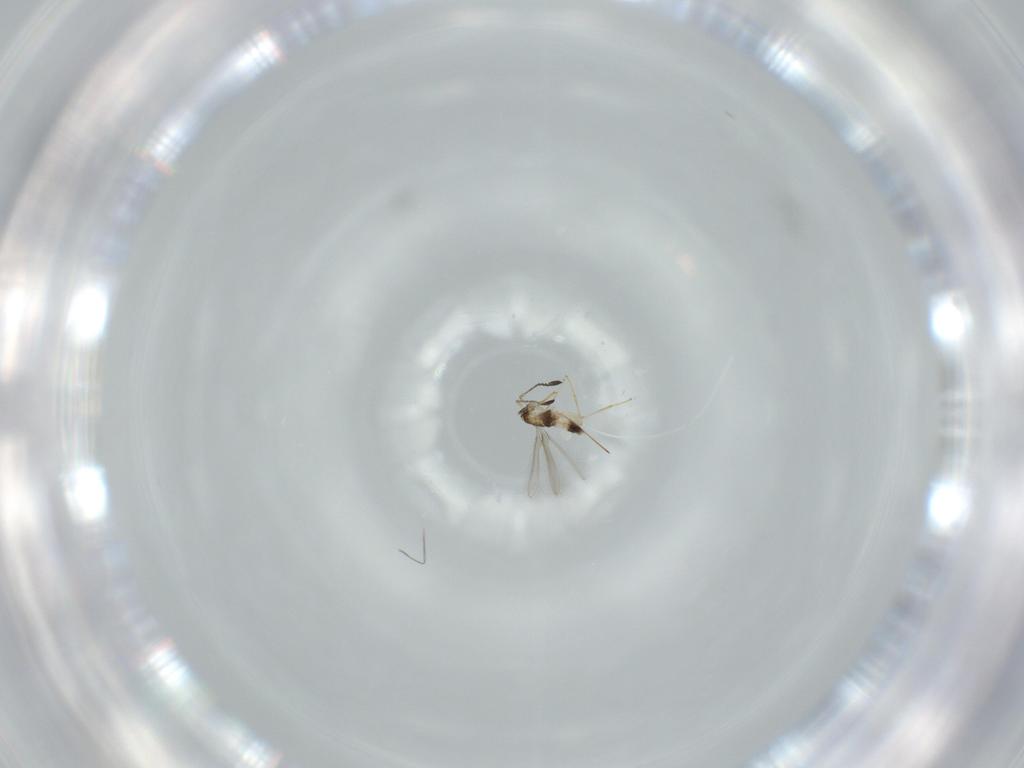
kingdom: Animalia
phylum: Arthropoda
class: Insecta
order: Hymenoptera
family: Mymaridae
